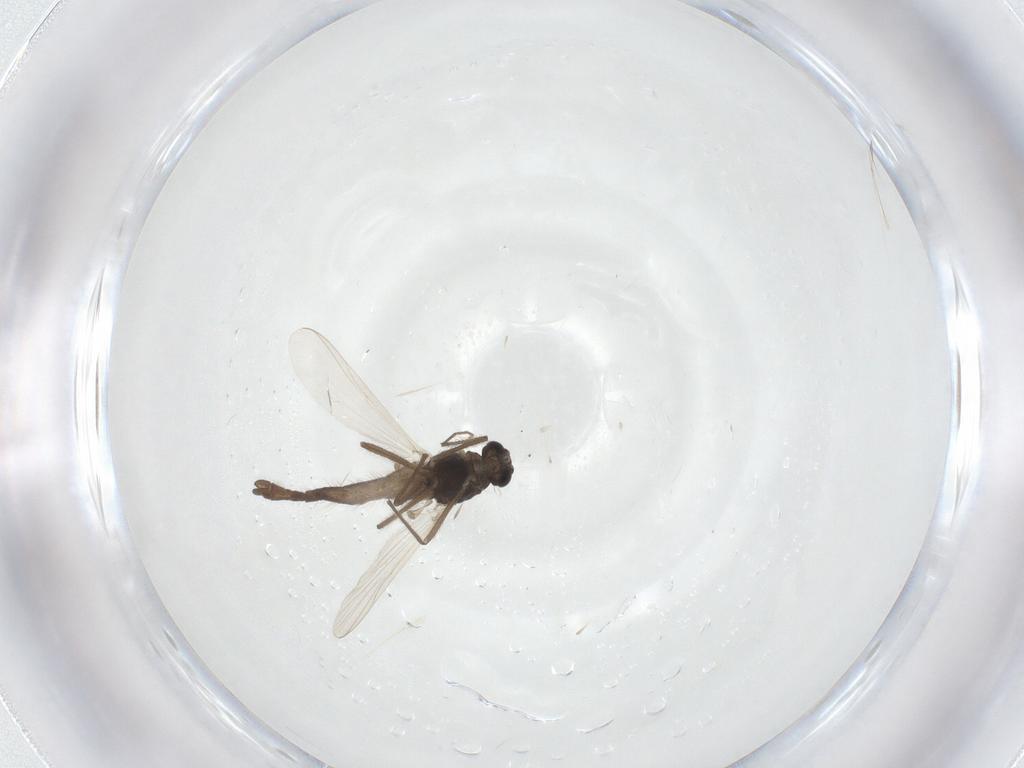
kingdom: Animalia
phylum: Arthropoda
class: Insecta
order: Diptera
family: Chironomidae
